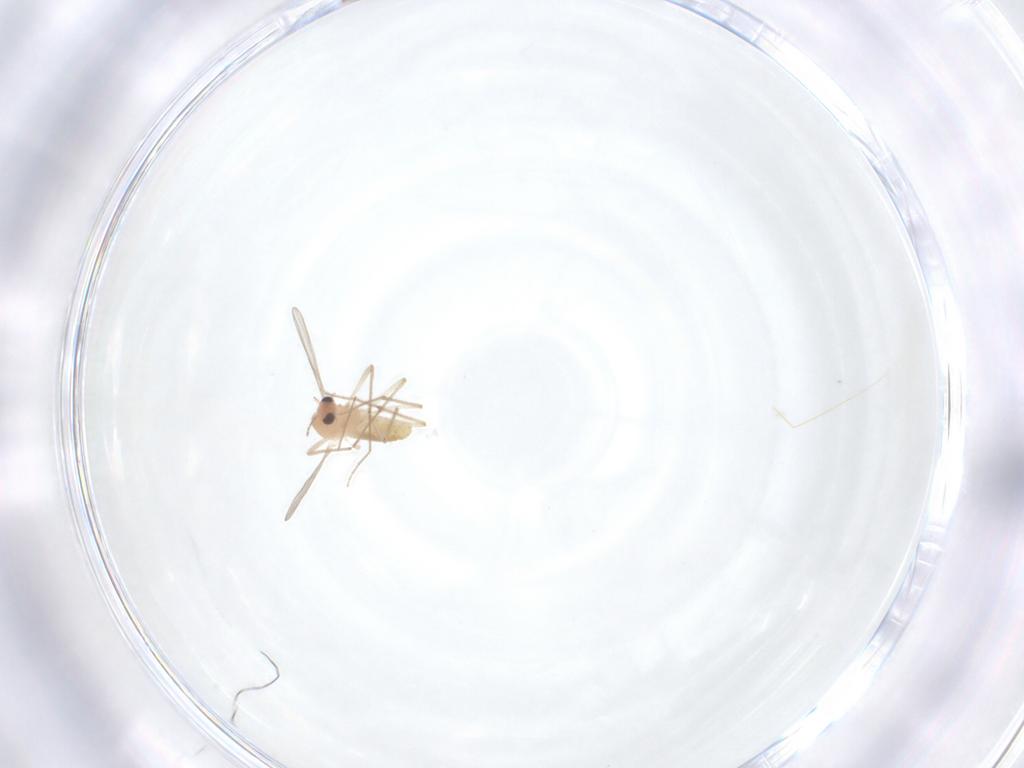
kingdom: Animalia
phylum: Arthropoda
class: Insecta
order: Diptera
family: Chironomidae
